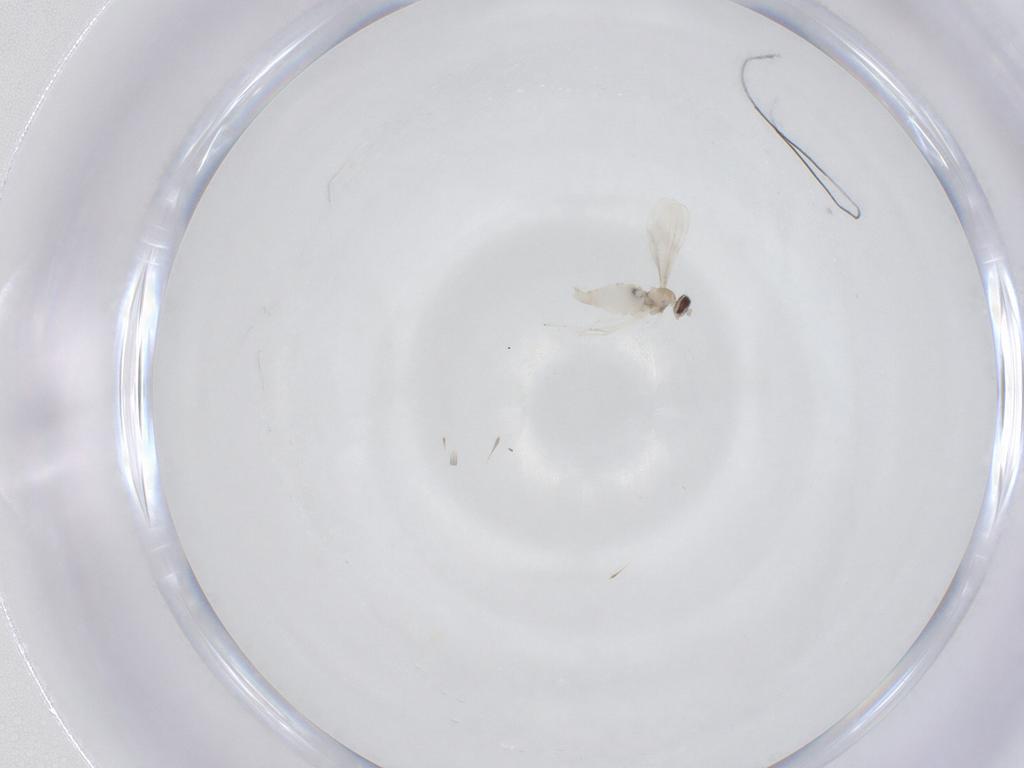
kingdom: Animalia
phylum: Arthropoda
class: Insecta
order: Diptera
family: Cecidomyiidae
